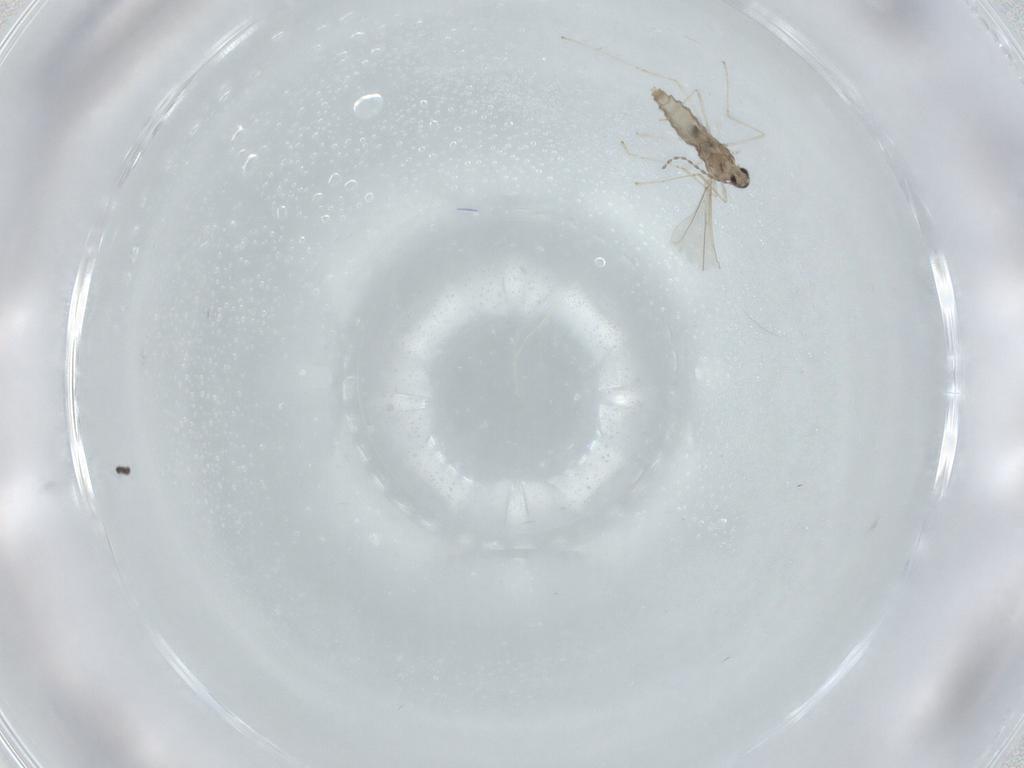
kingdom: Animalia
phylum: Arthropoda
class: Insecta
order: Diptera
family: Cecidomyiidae
